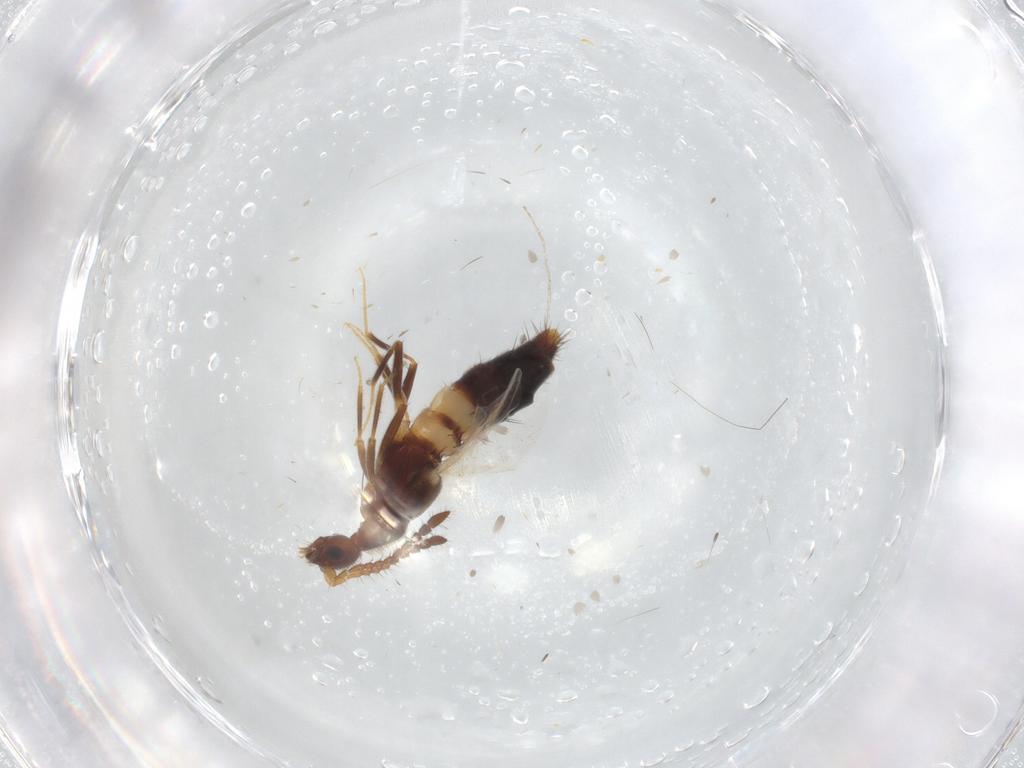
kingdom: Animalia
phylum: Arthropoda
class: Insecta
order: Coleoptera
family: Staphylinidae
